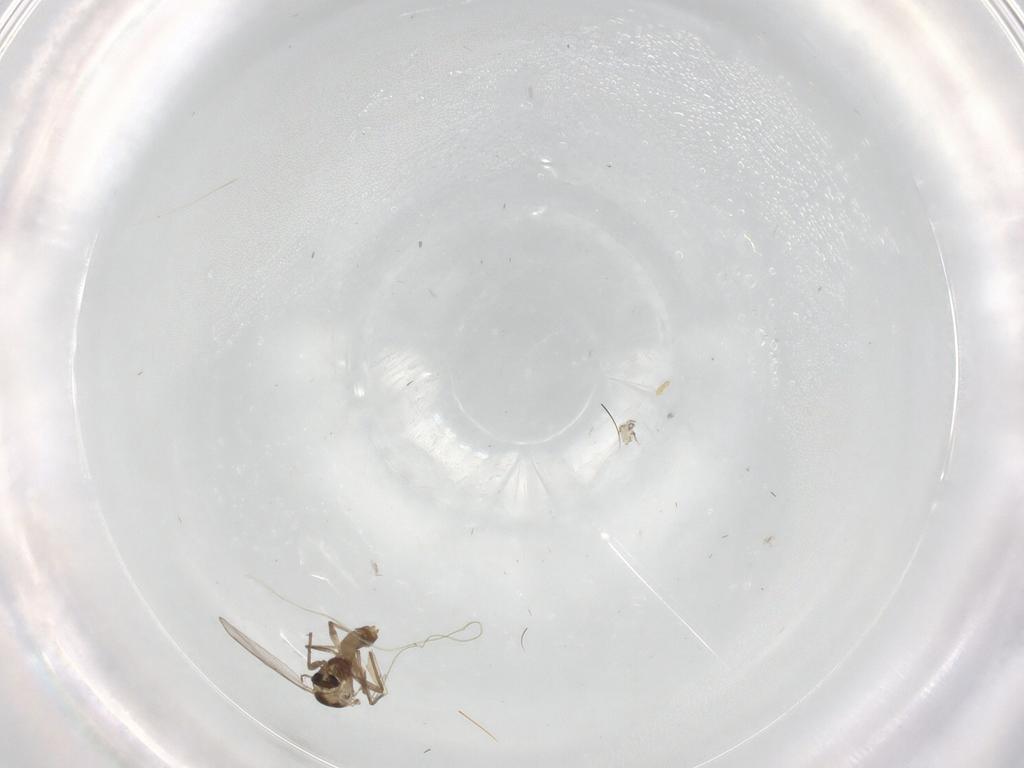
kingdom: Animalia
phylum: Arthropoda
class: Insecta
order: Diptera
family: Culicidae
